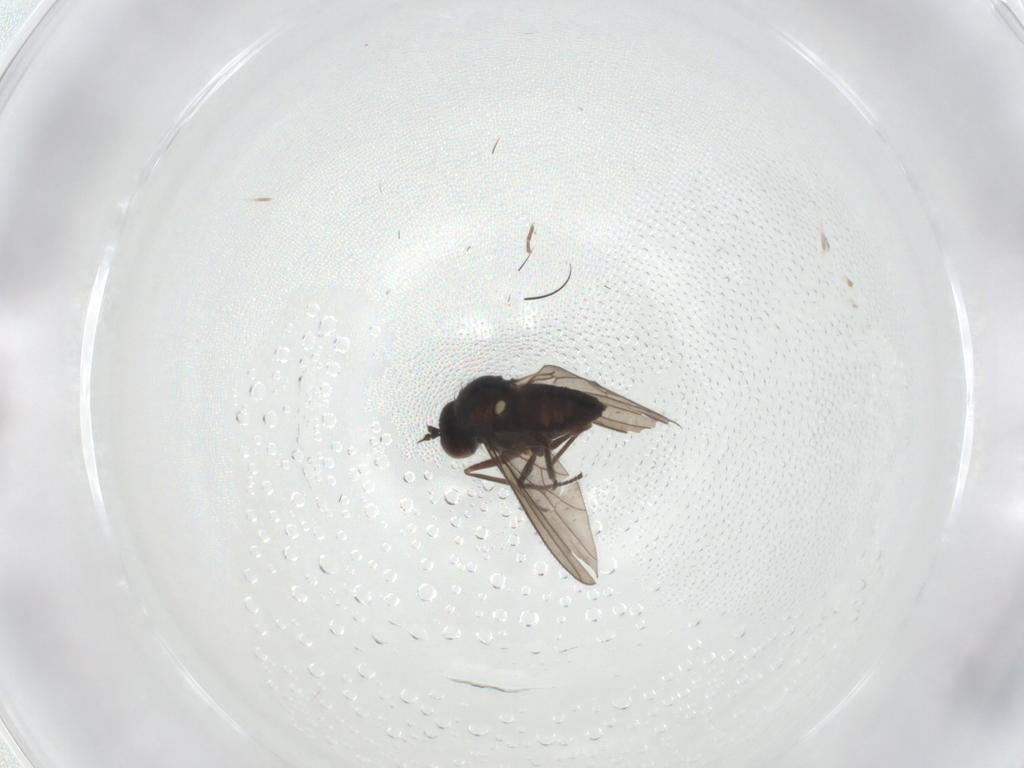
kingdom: Animalia
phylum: Arthropoda
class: Insecta
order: Diptera
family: Dolichopodidae
